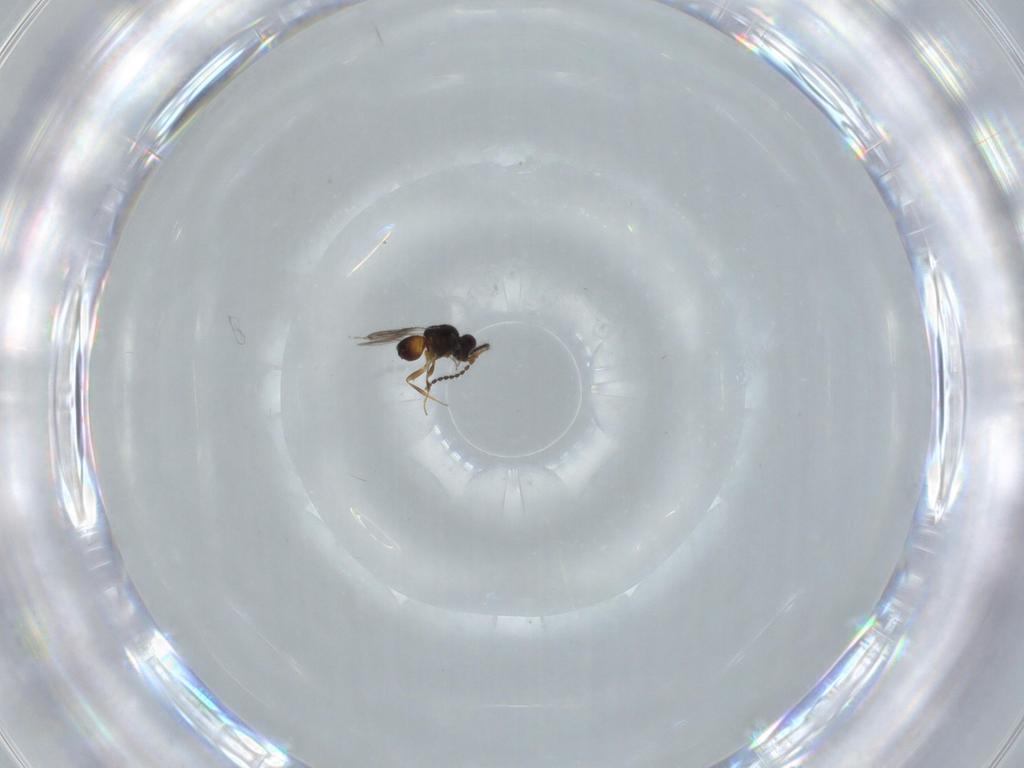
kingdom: Animalia
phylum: Arthropoda
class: Insecta
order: Hymenoptera
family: Ceraphronidae
